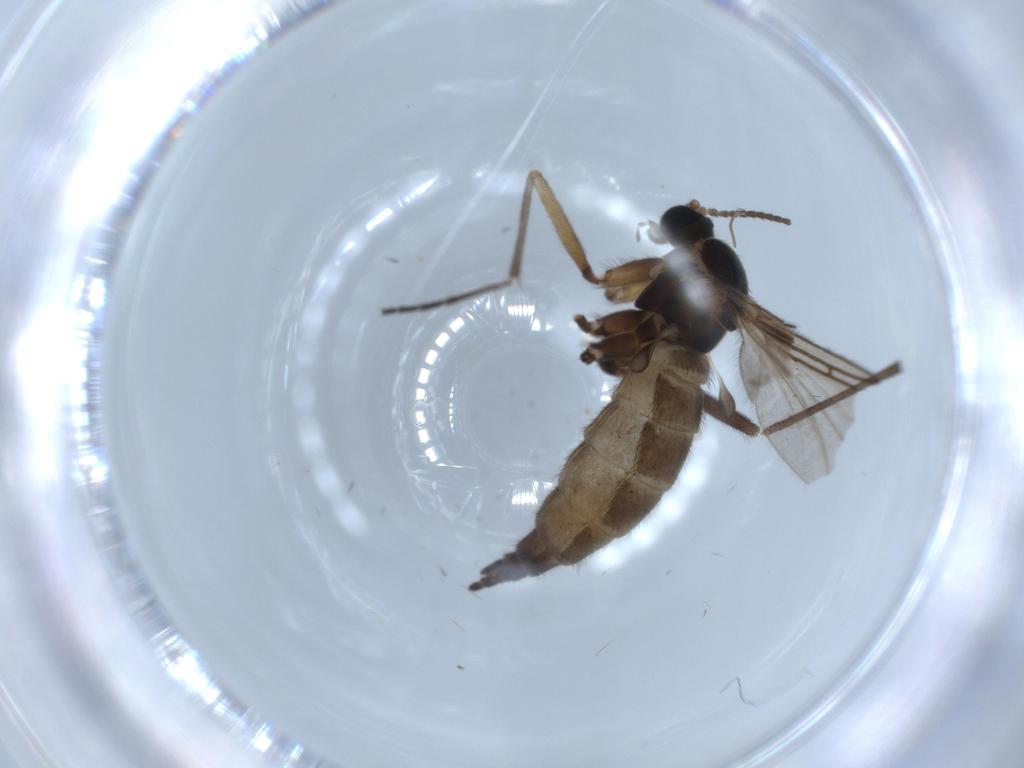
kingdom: Animalia
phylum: Arthropoda
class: Insecta
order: Diptera
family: Sciaridae
